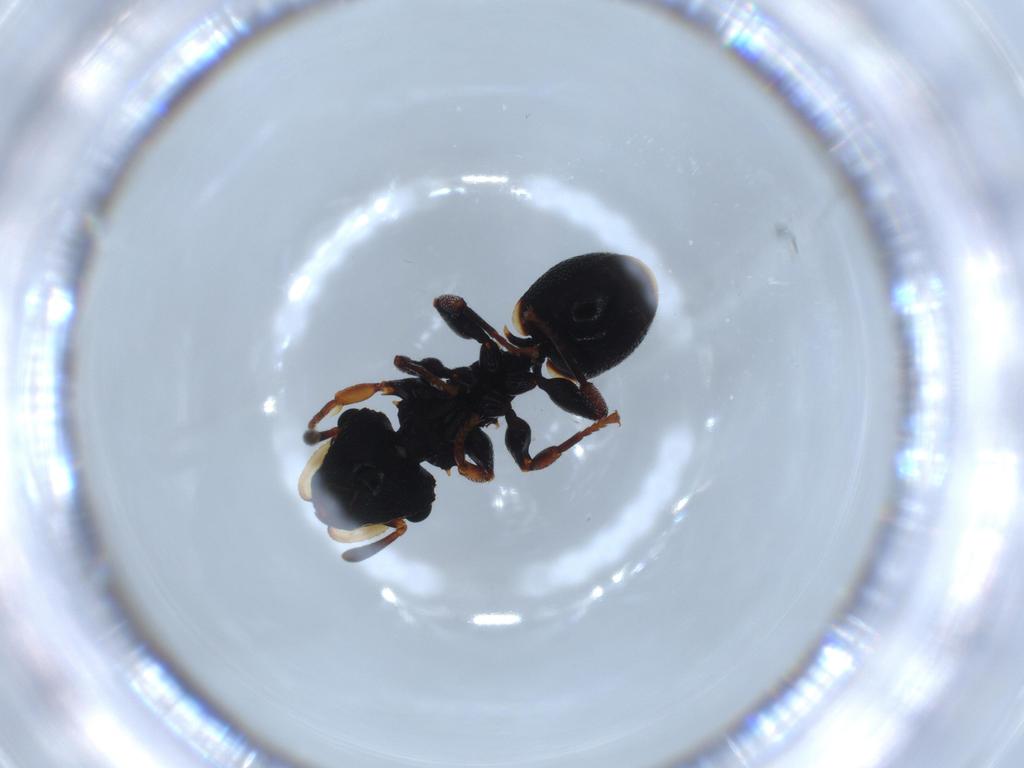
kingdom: Animalia
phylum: Arthropoda
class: Insecta
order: Hymenoptera
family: Formicidae
